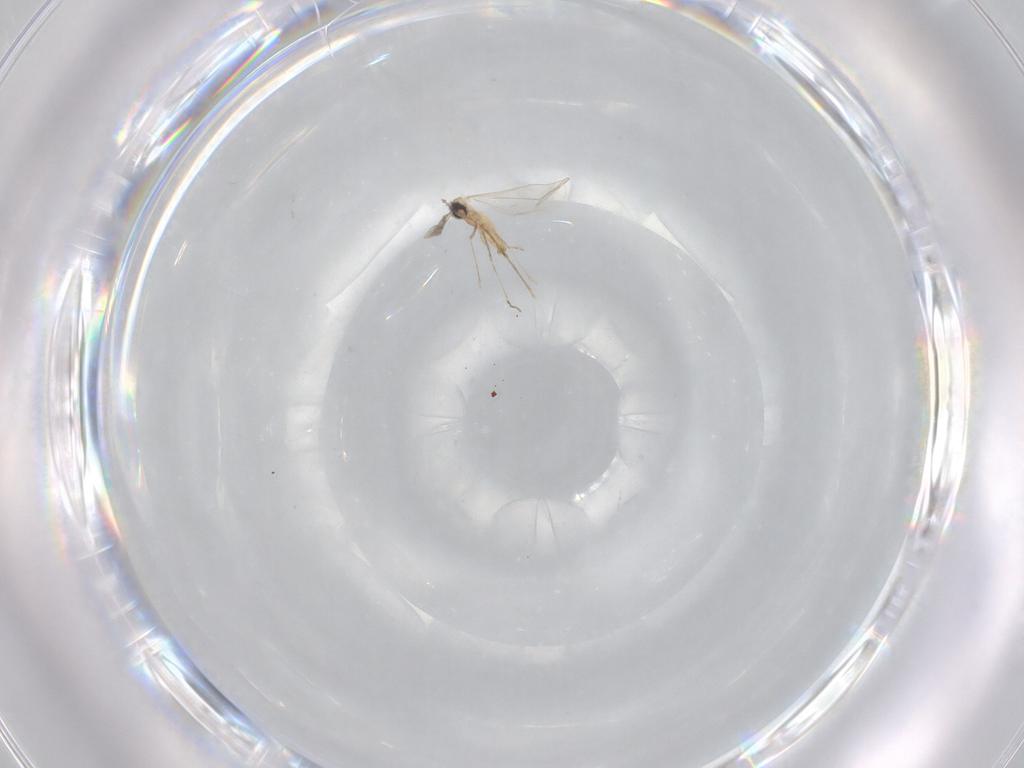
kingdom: Animalia
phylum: Arthropoda
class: Insecta
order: Diptera
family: Cecidomyiidae
